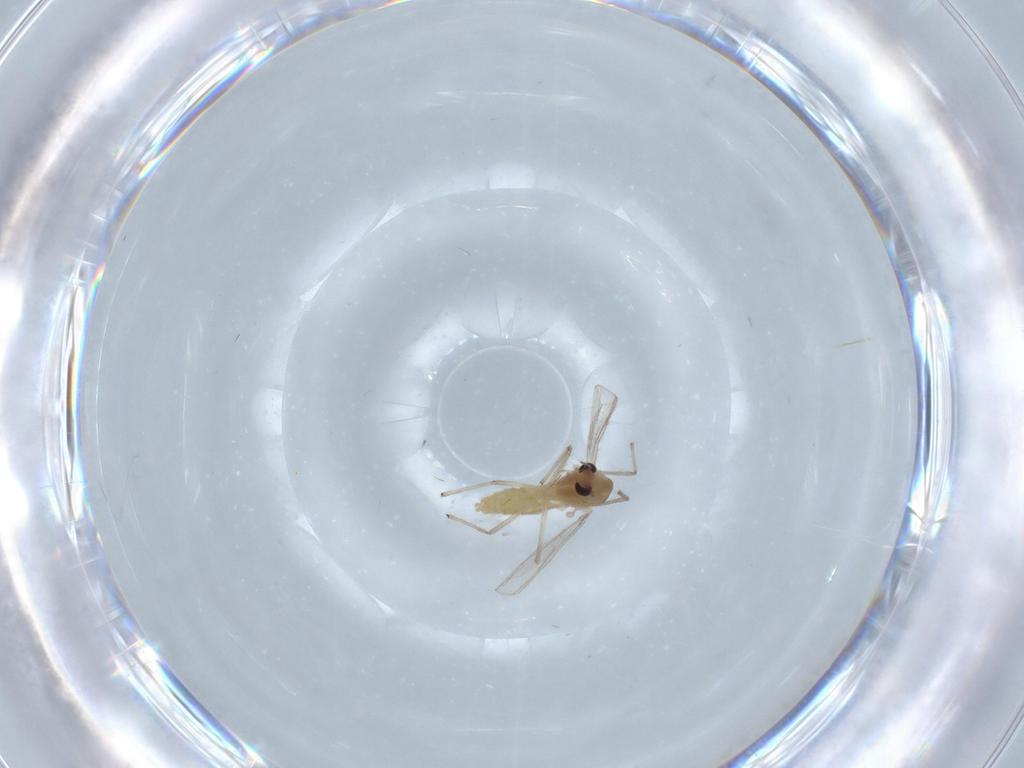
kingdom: Animalia
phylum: Arthropoda
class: Insecta
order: Diptera
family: Chironomidae
